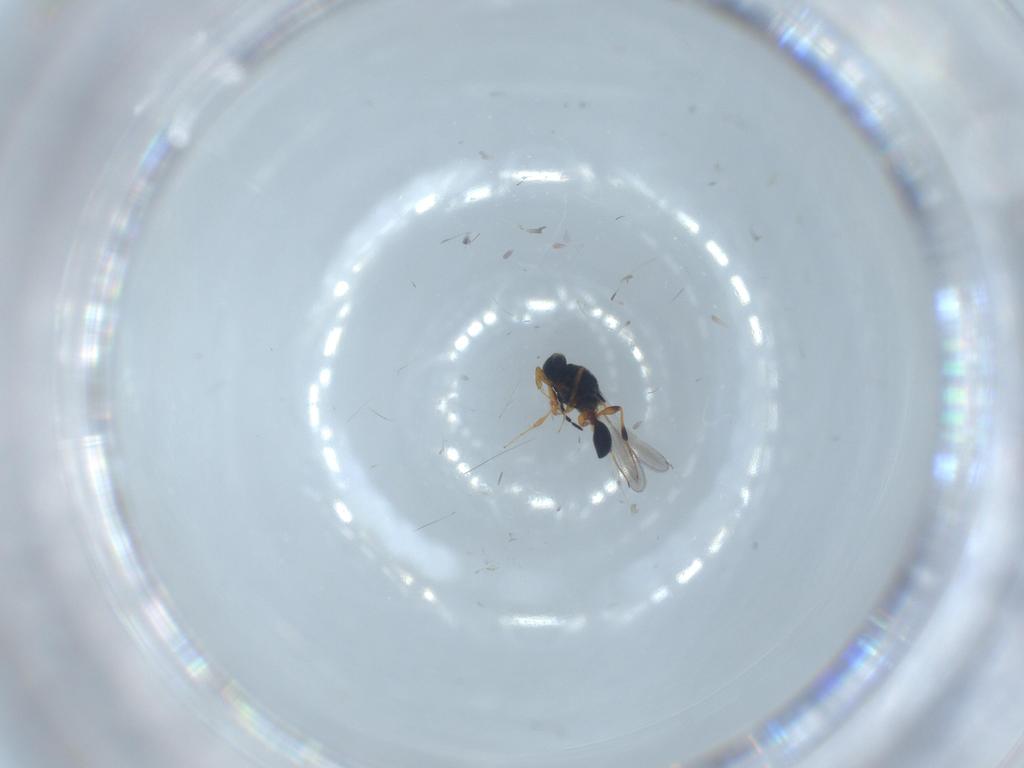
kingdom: Animalia
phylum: Arthropoda
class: Insecta
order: Hymenoptera
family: Platygastridae
